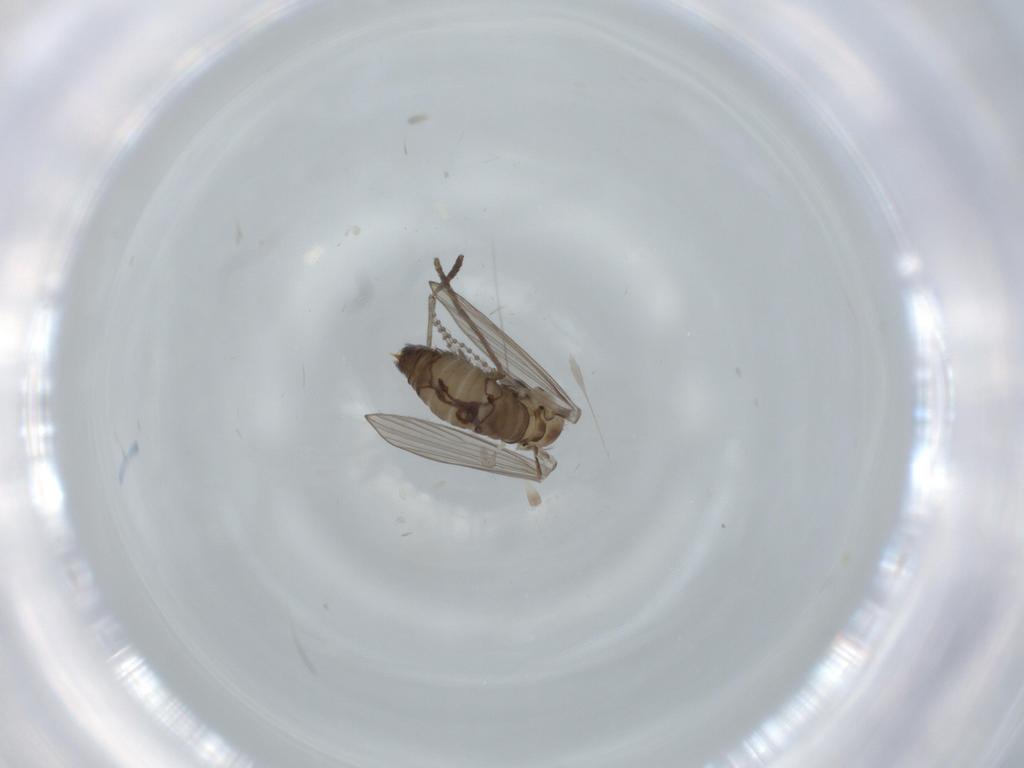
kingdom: Animalia
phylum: Arthropoda
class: Insecta
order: Diptera
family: Psychodidae
